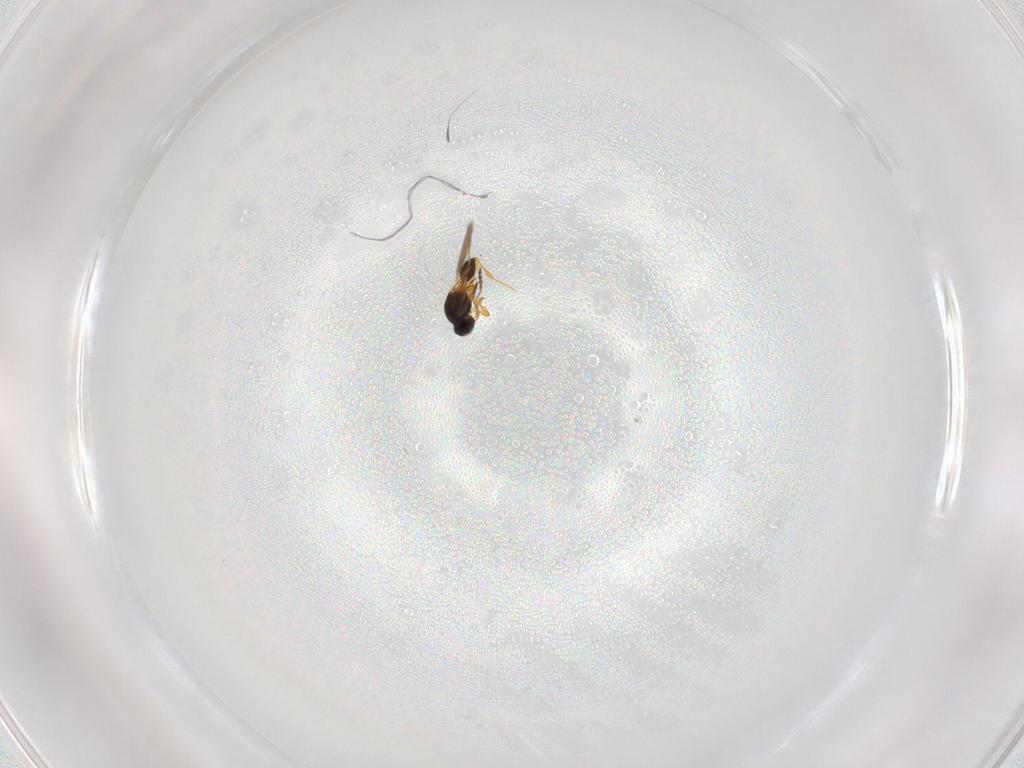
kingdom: Animalia
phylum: Arthropoda
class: Insecta
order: Hymenoptera
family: Platygastridae
